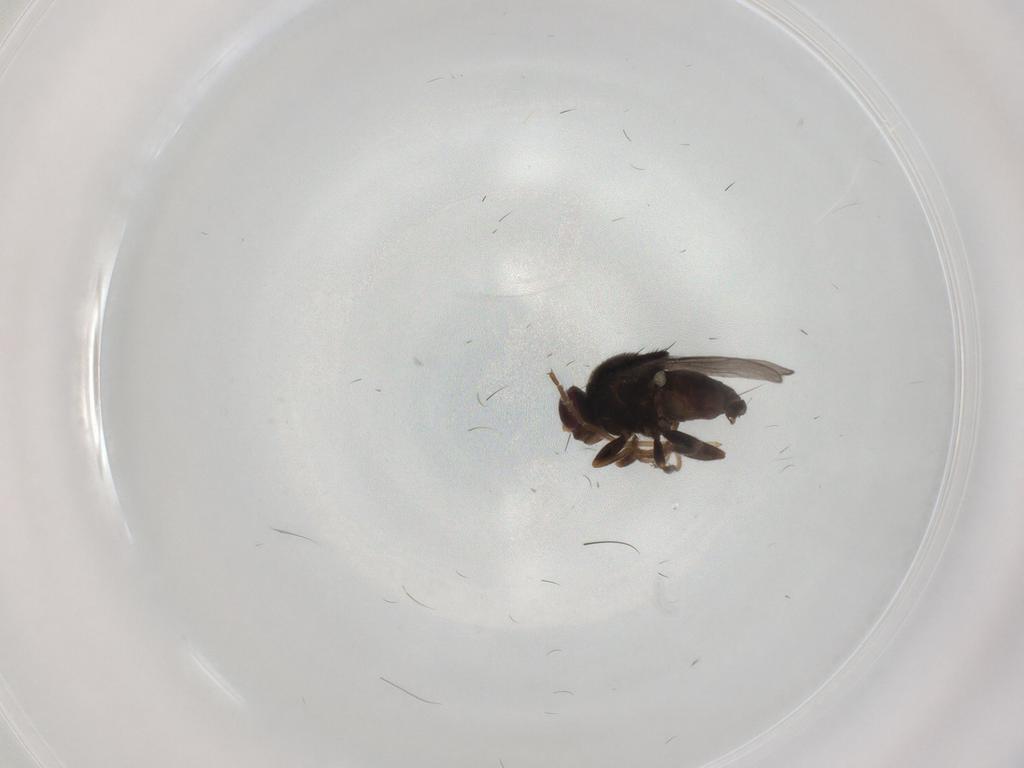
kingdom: Animalia
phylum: Arthropoda
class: Insecta
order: Diptera
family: Chloropidae
